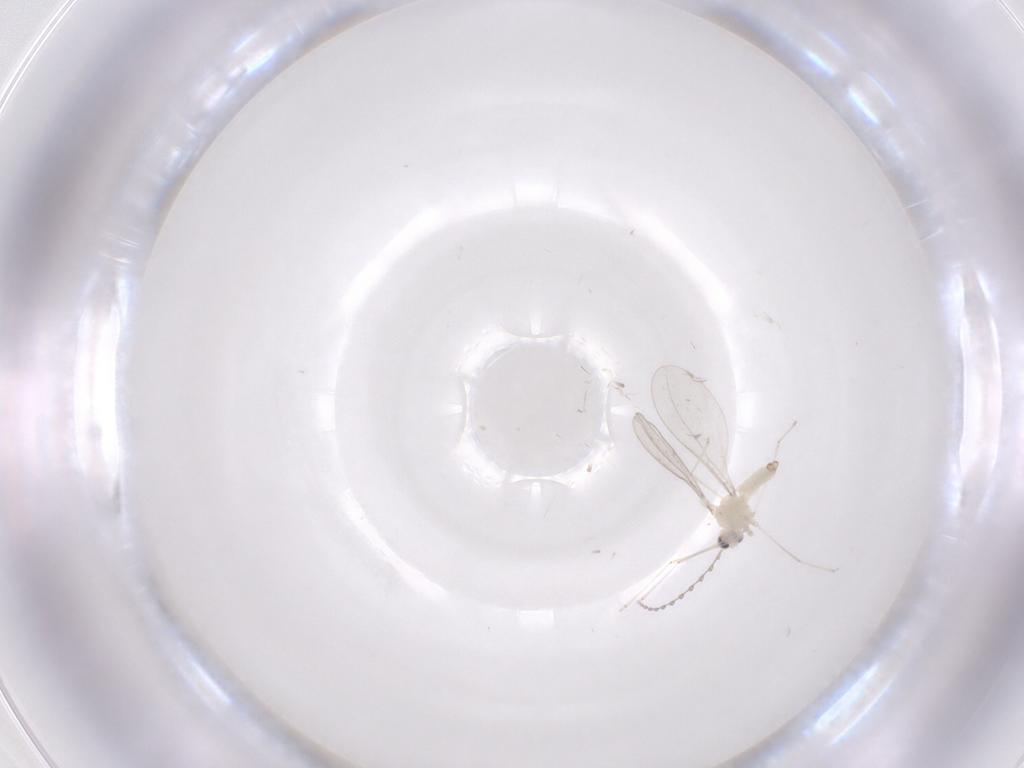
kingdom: Animalia
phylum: Arthropoda
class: Insecta
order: Diptera
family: Cecidomyiidae
